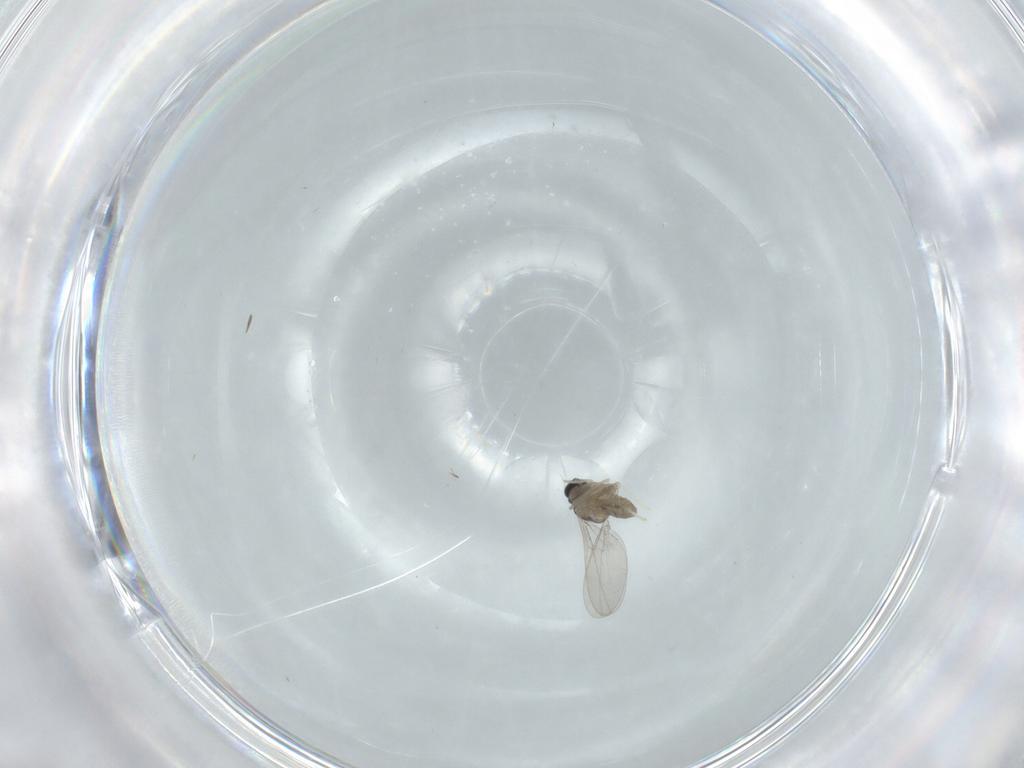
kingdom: Animalia
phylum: Arthropoda
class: Insecta
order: Diptera
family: Cecidomyiidae
